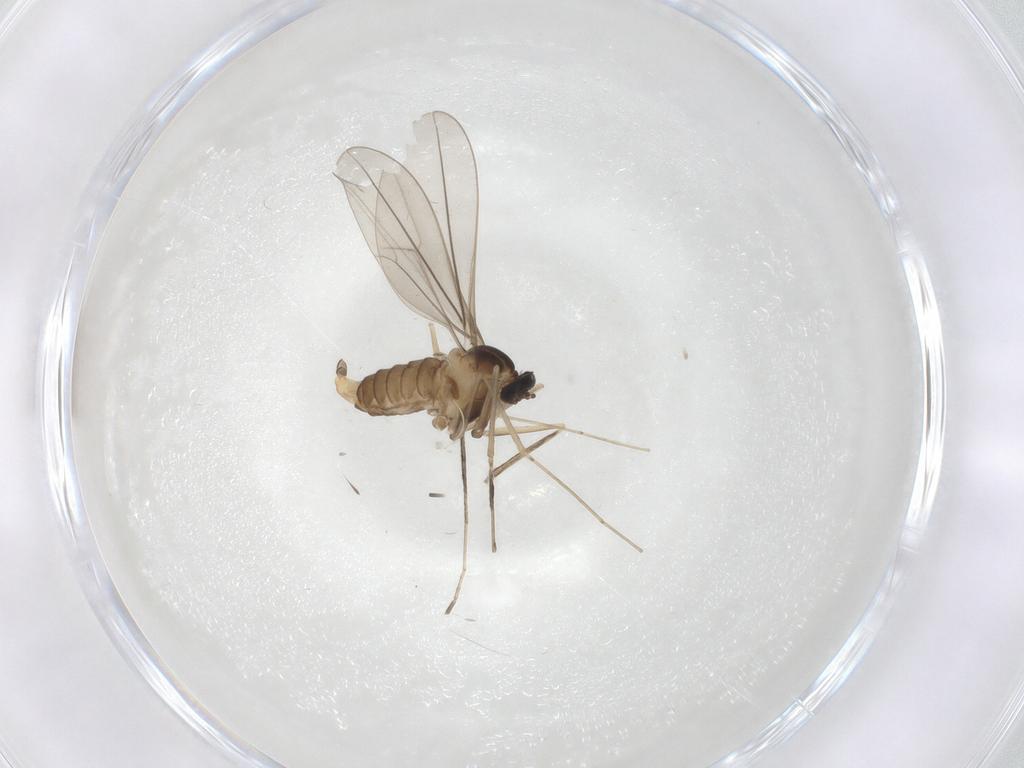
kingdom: Animalia
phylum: Arthropoda
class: Insecta
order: Diptera
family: Cecidomyiidae
